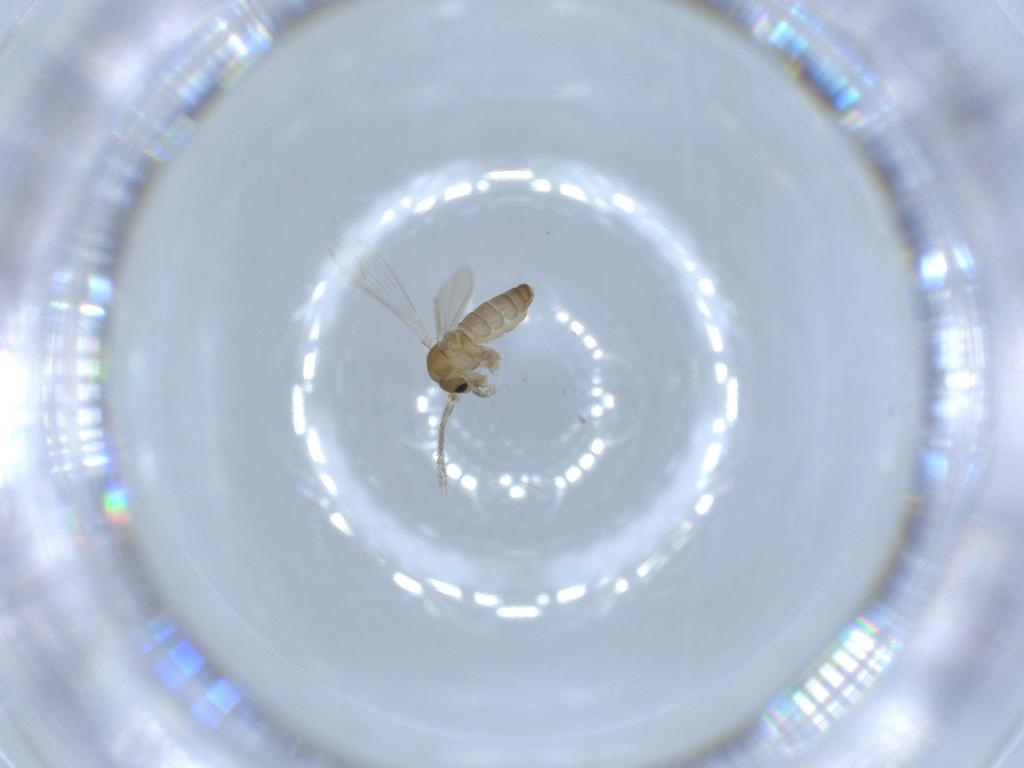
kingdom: Animalia
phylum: Arthropoda
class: Insecta
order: Diptera
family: Psychodidae
